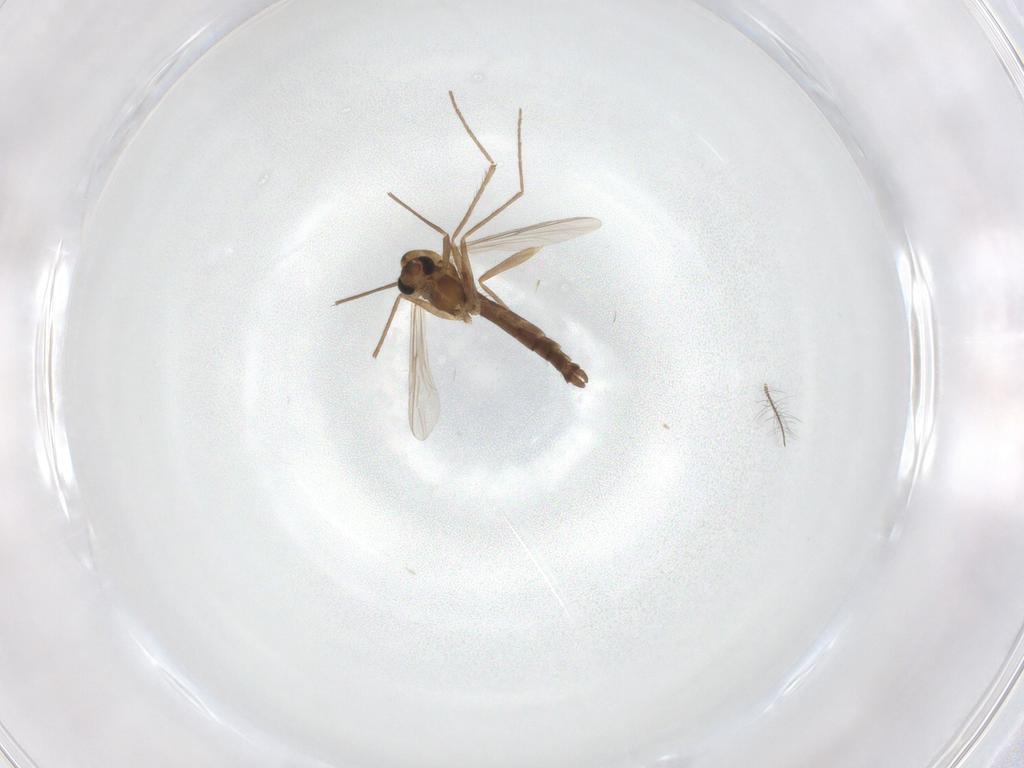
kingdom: Animalia
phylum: Arthropoda
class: Insecta
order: Diptera
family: Chironomidae
